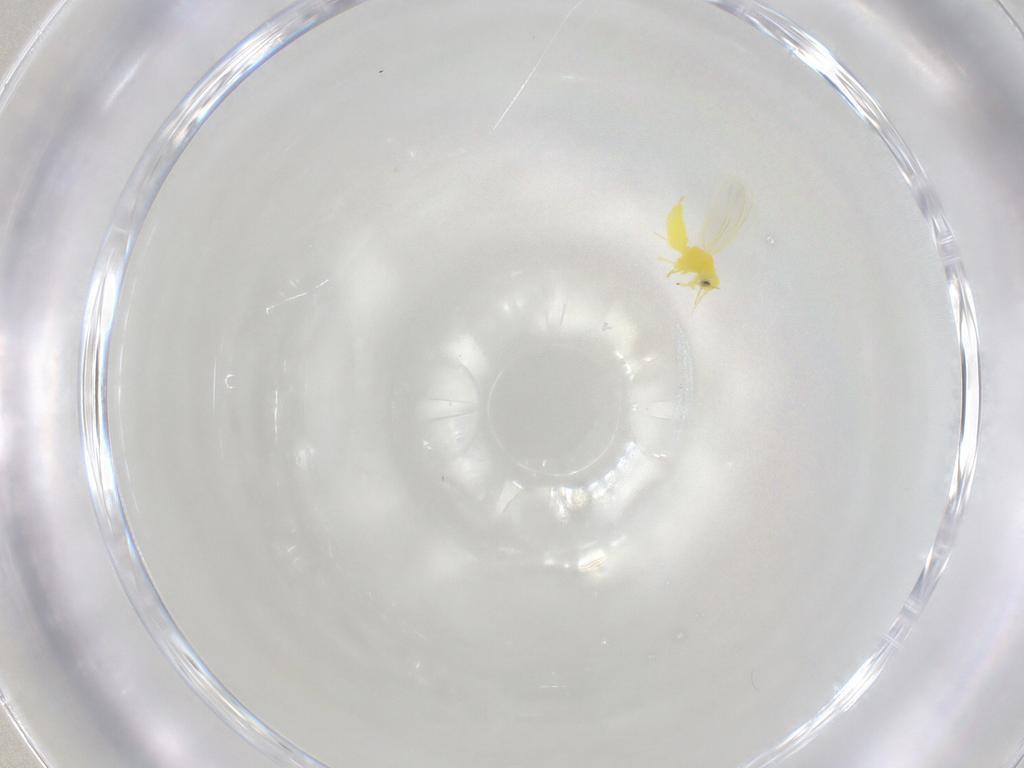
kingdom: Animalia
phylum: Arthropoda
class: Insecta
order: Hemiptera
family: Aleyrodidae
